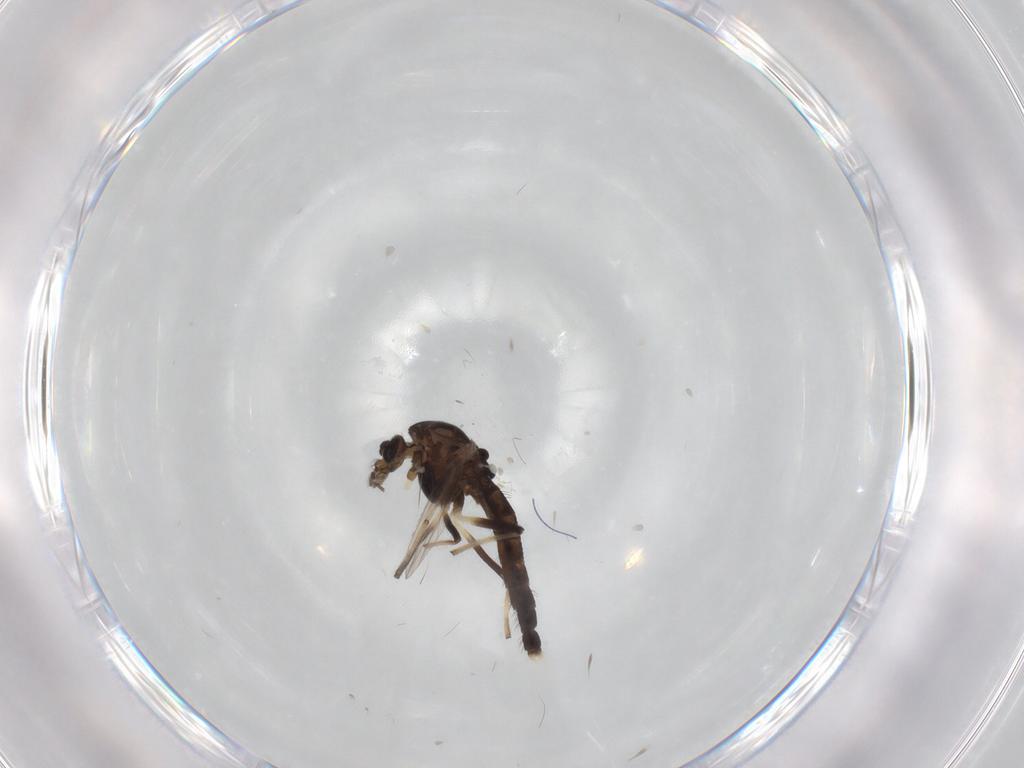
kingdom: Animalia
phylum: Arthropoda
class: Insecta
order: Diptera
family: Chironomidae
